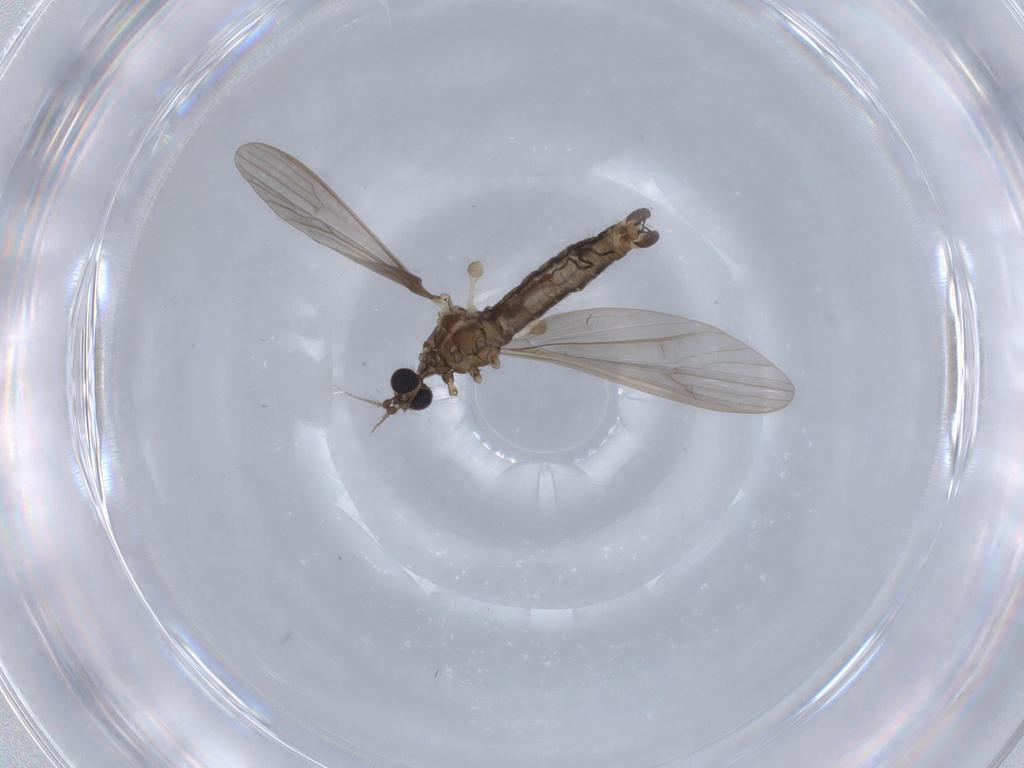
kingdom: Animalia
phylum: Arthropoda
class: Insecta
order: Diptera
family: Limoniidae
